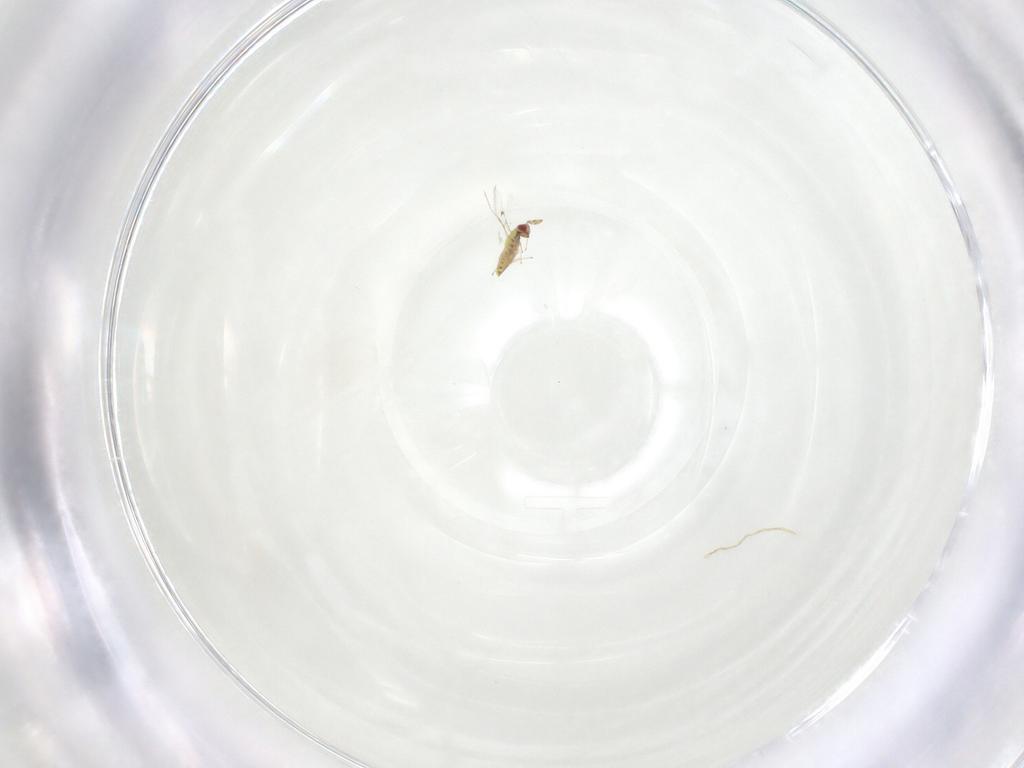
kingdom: Animalia
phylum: Arthropoda
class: Insecta
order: Hymenoptera
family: Trichogrammatidae
